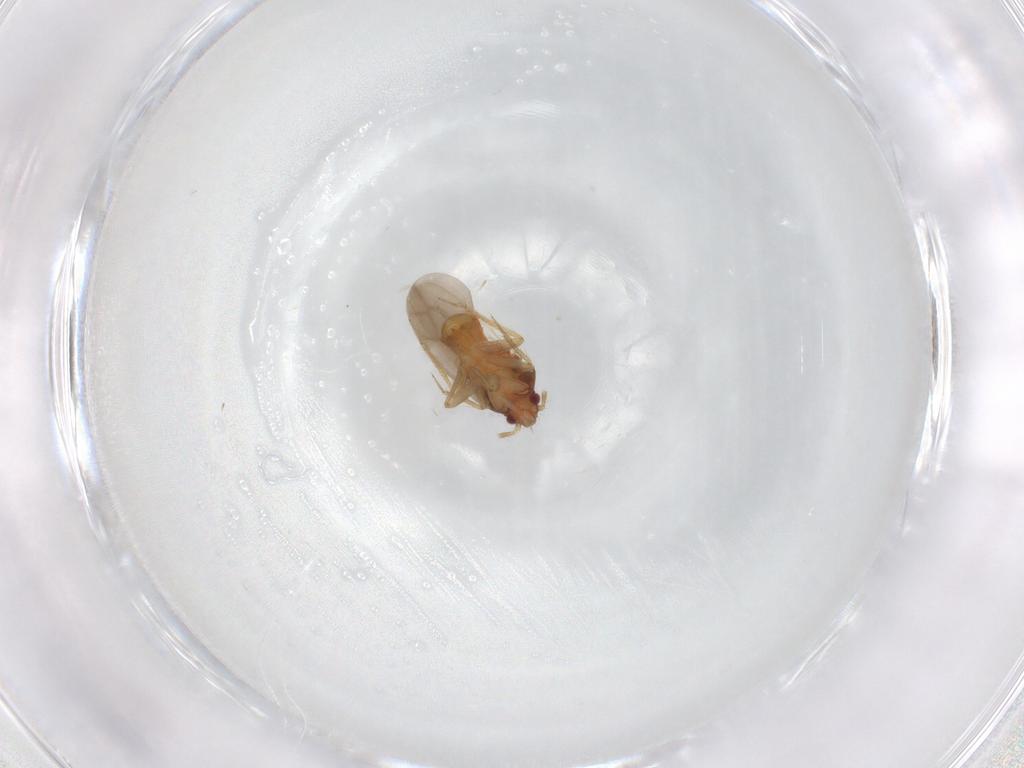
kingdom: Animalia
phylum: Arthropoda
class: Insecta
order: Hemiptera
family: Ceratocombidae
